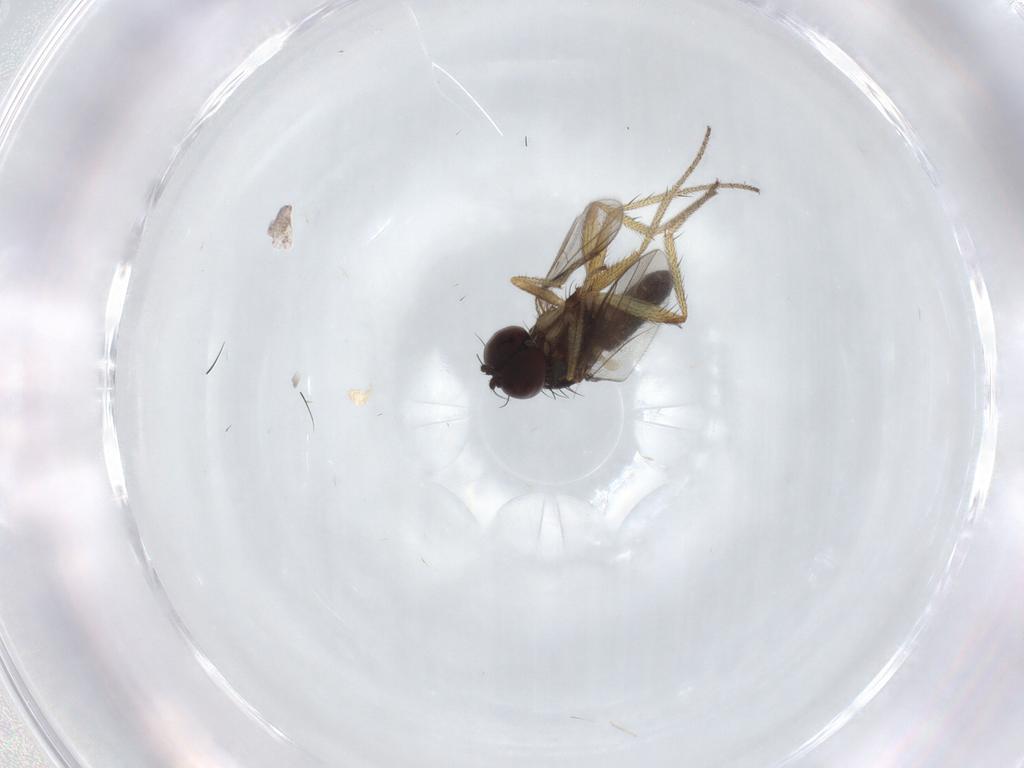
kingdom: Animalia
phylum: Arthropoda
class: Insecta
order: Diptera
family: Dolichopodidae
